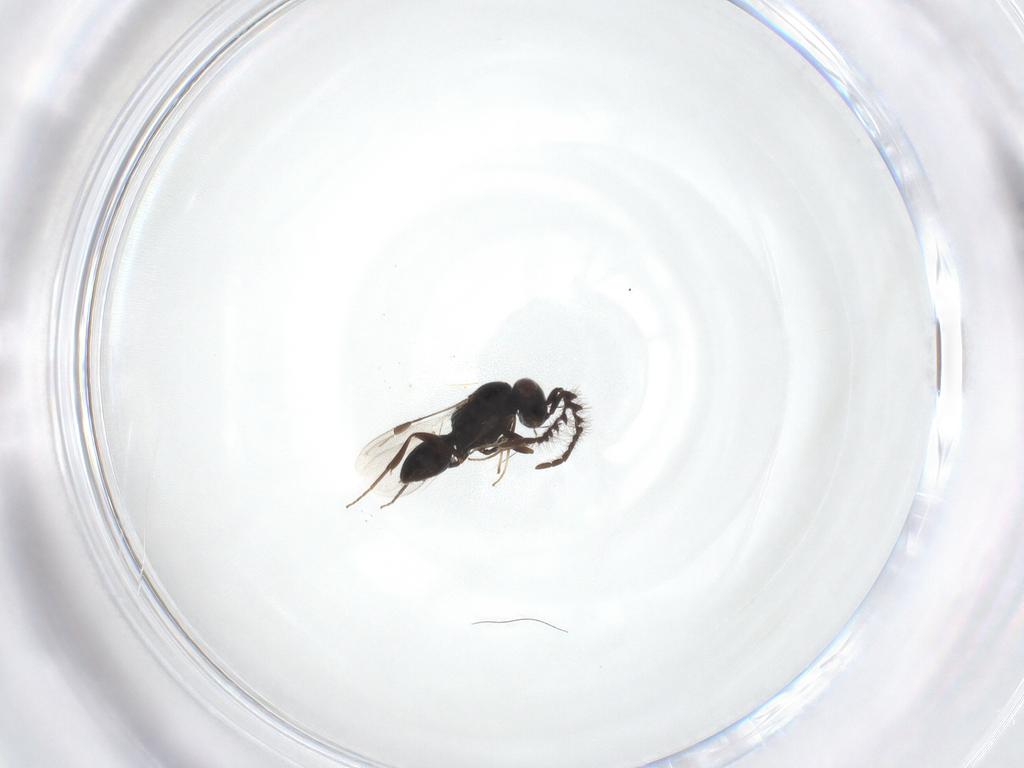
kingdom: Animalia
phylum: Arthropoda
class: Insecta
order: Hymenoptera
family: Megaspilidae
